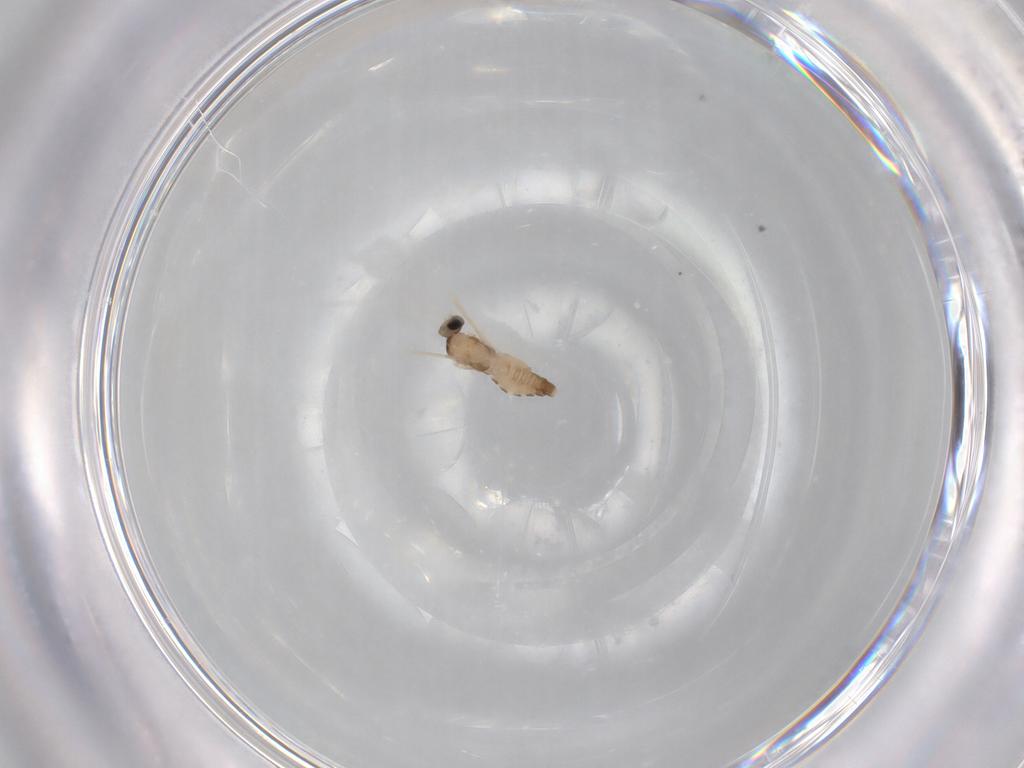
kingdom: Animalia
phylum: Arthropoda
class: Insecta
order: Diptera
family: Cecidomyiidae
